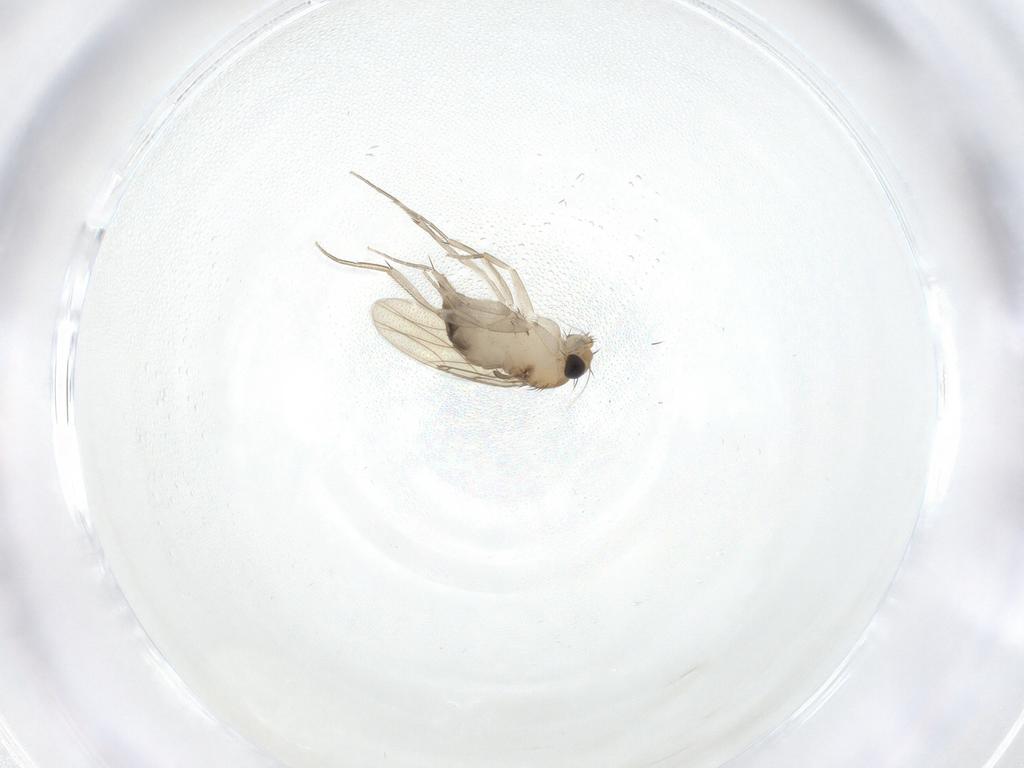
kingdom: Animalia
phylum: Arthropoda
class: Insecta
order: Diptera
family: Phoridae
